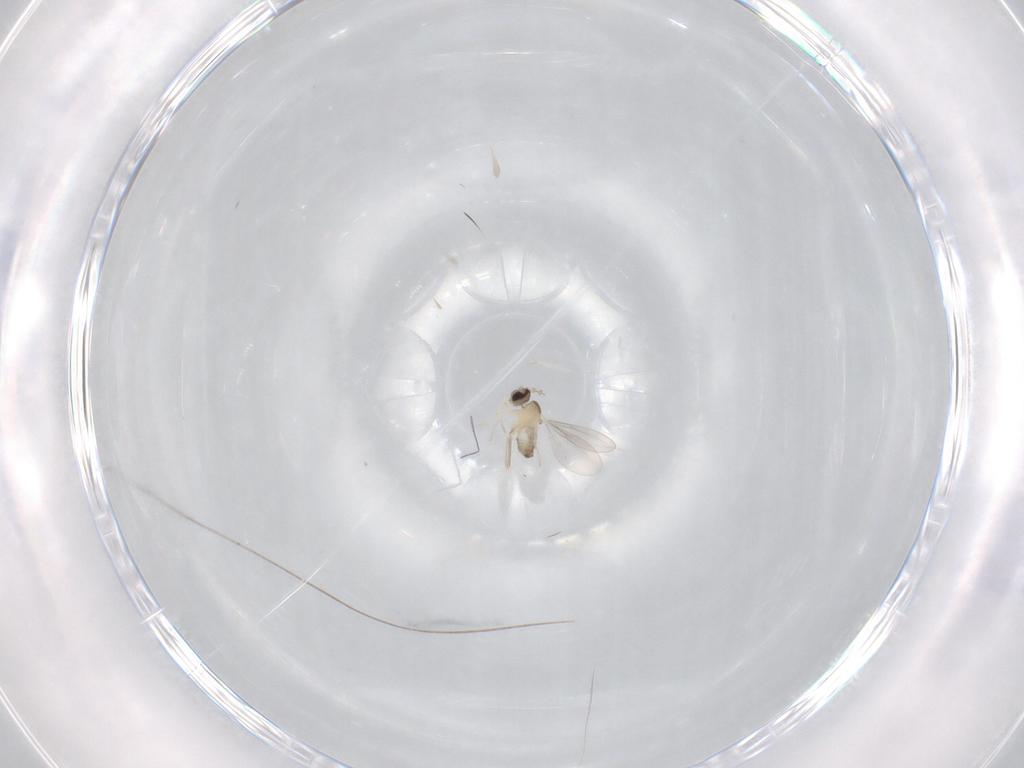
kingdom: Animalia
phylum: Arthropoda
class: Insecta
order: Diptera
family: Cecidomyiidae
